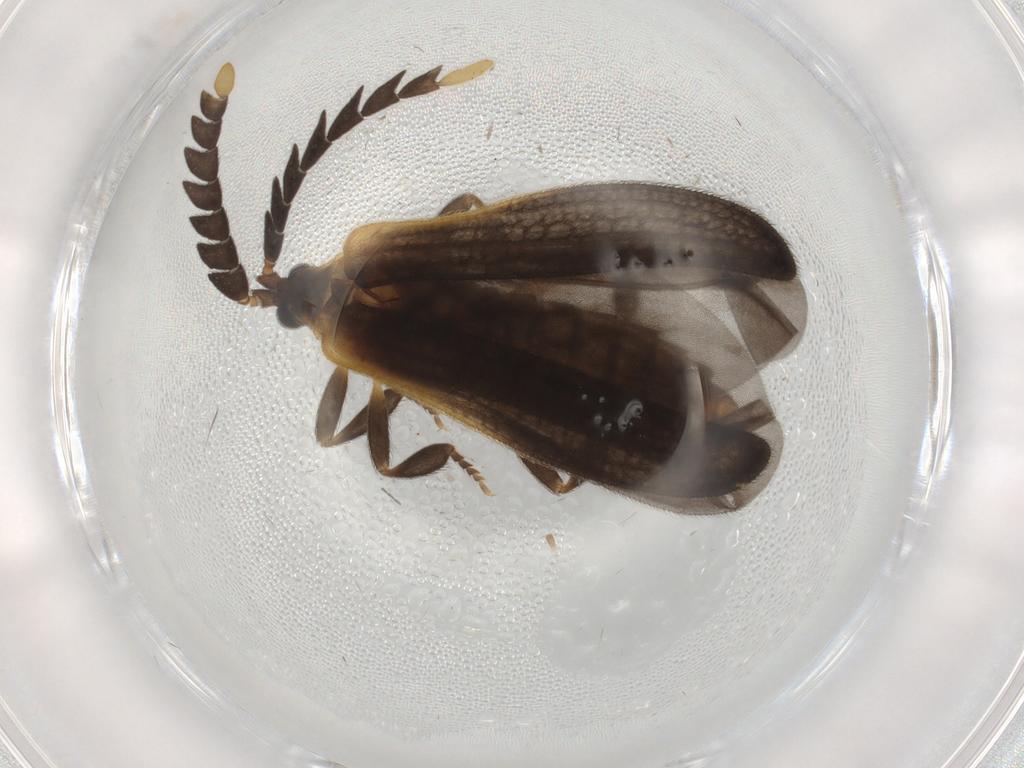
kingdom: Animalia
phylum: Arthropoda
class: Insecta
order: Coleoptera
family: Lycidae
